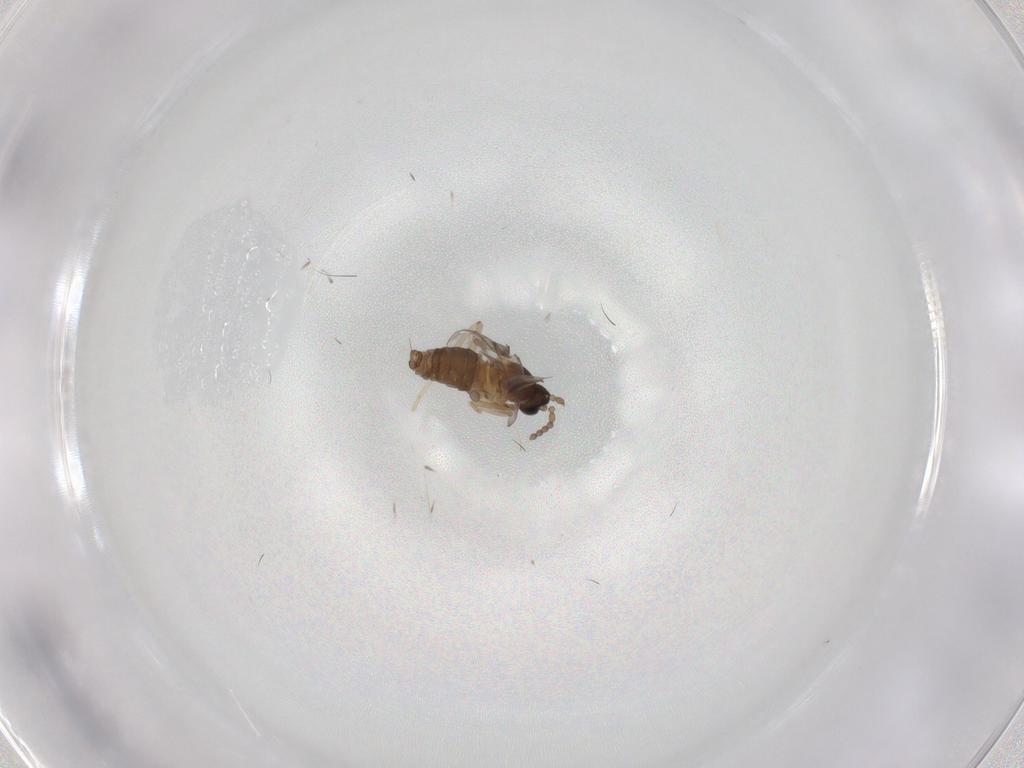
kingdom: Animalia
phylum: Arthropoda
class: Insecta
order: Diptera
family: Cecidomyiidae
